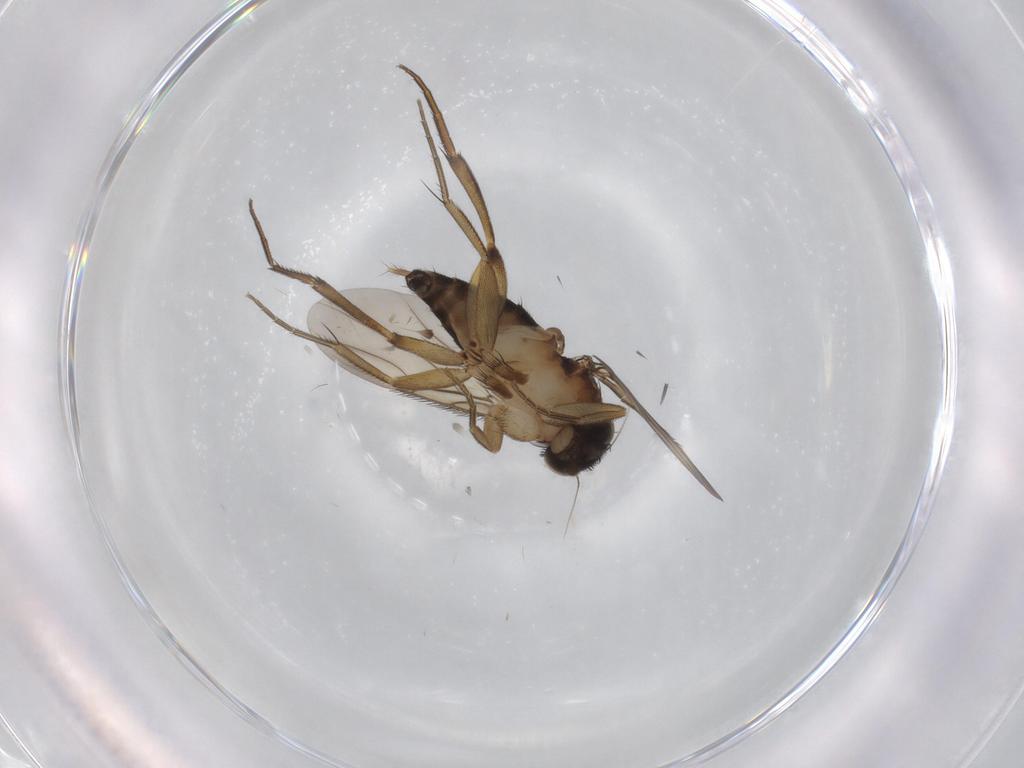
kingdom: Animalia
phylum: Arthropoda
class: Insecta
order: Diptera
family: Phoridae
